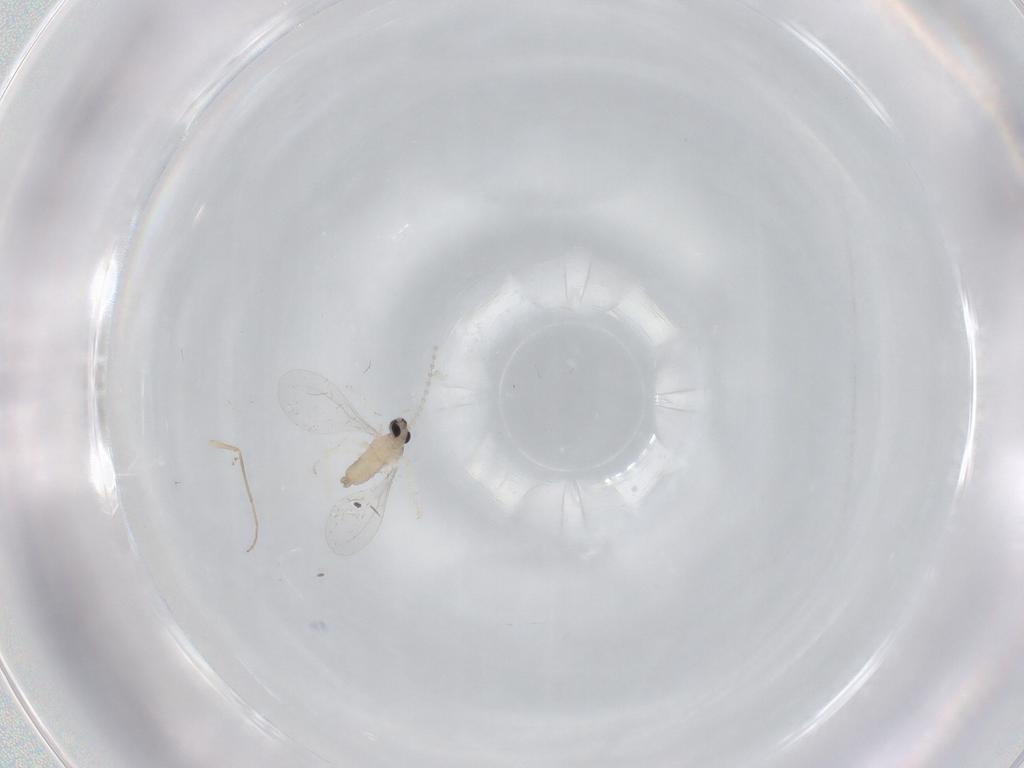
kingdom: Animalia
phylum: Arthropoda
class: Insecta
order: Diptera
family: Cecidomyiidae
